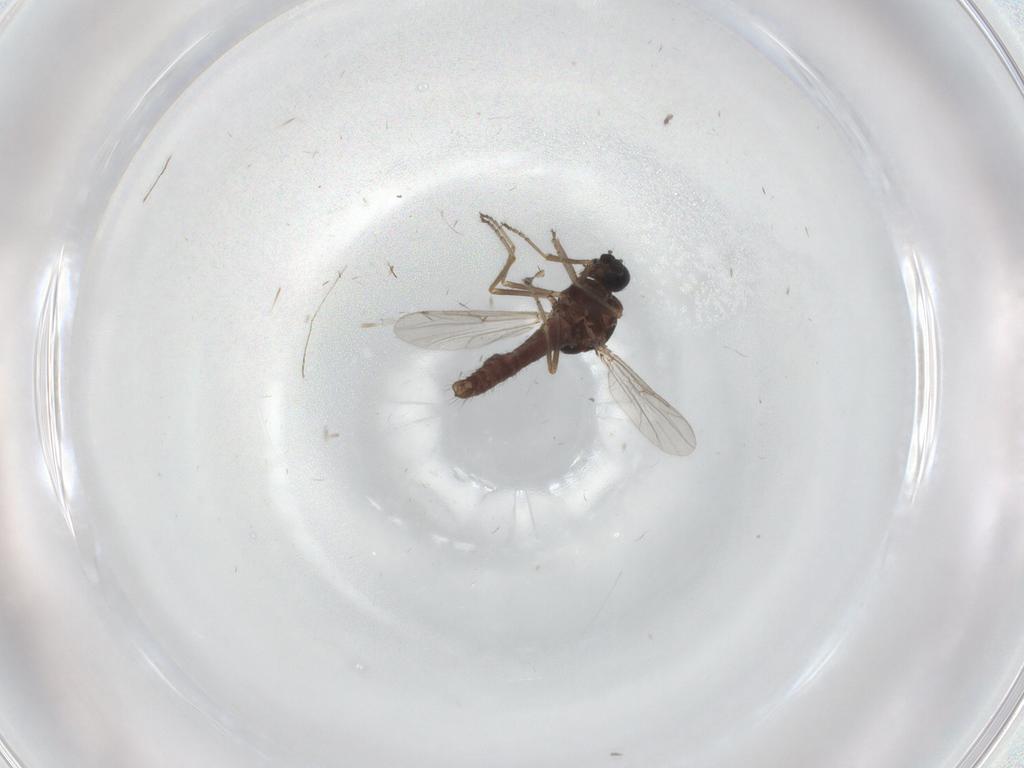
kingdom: Animalia
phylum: Arthropoda
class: Insecta
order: Diptera
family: Ceratopogonidae
